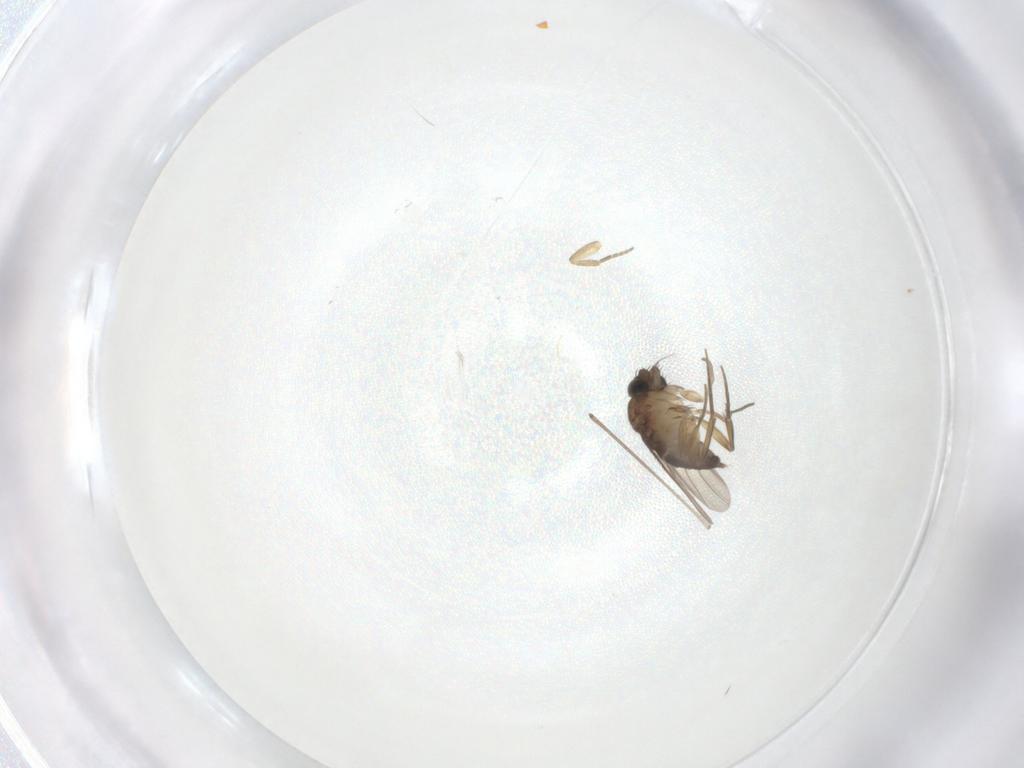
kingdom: Animalia
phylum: Arthropoda
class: Insecta
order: Diptera
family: Phoridae
